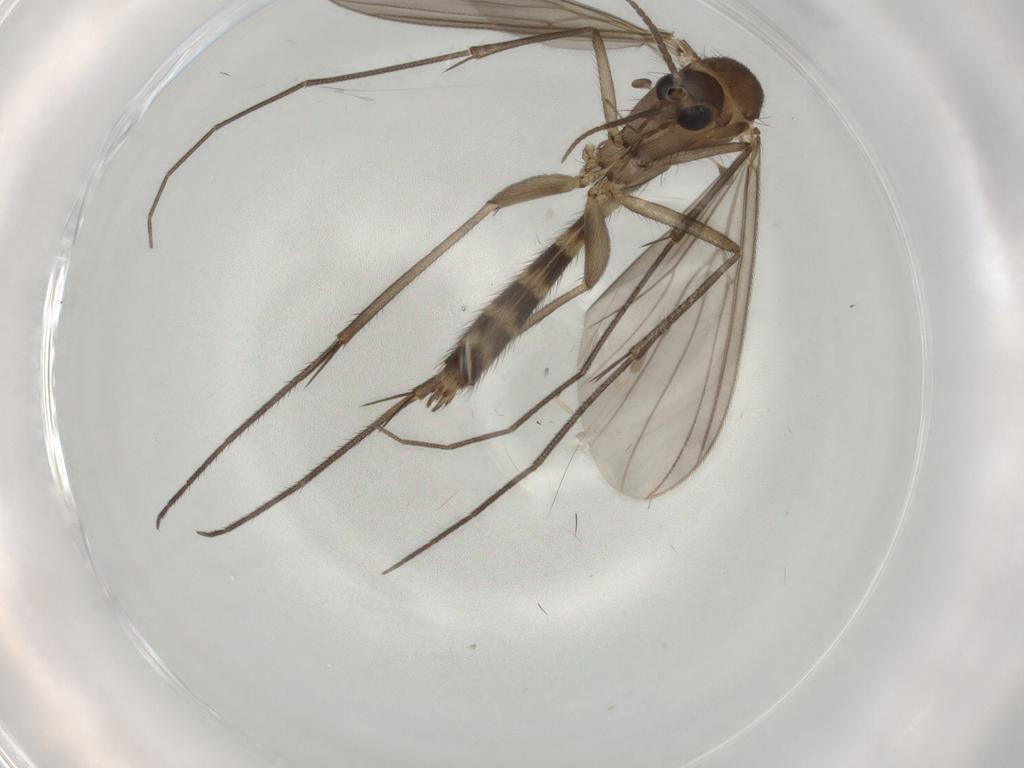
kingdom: Animalia
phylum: Arthropoda
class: Insecta
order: Diptera
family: Mycetophilidae
